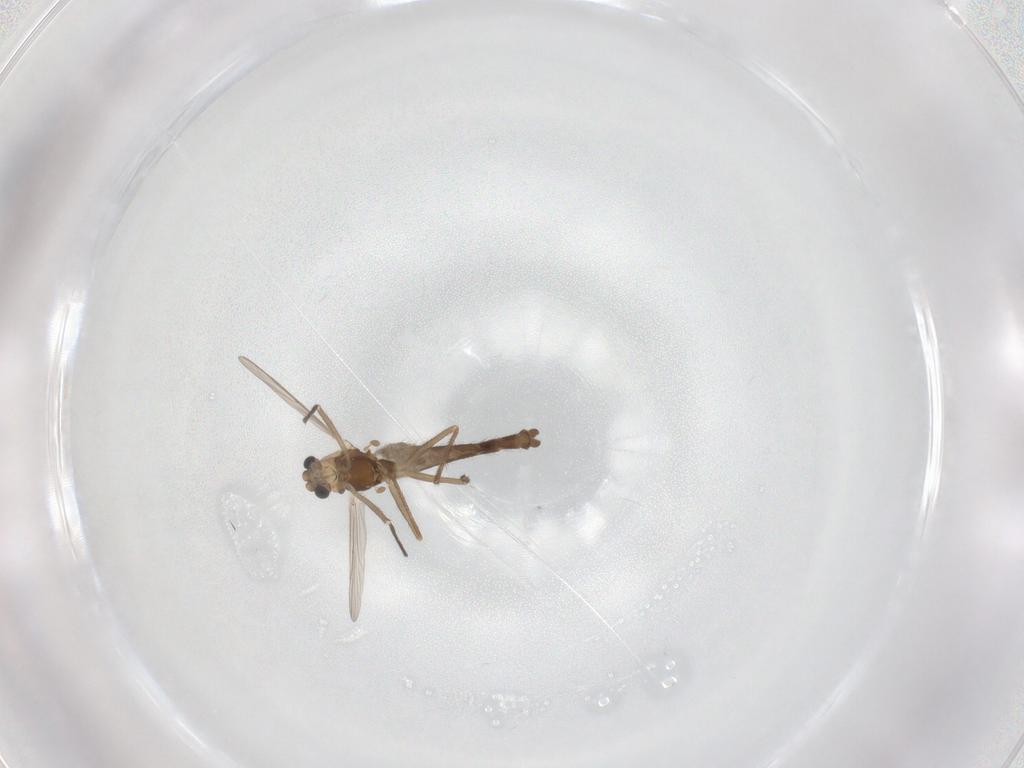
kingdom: Animalia
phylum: Arthropoda
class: Insecta
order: Diptera
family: Chironomidae
